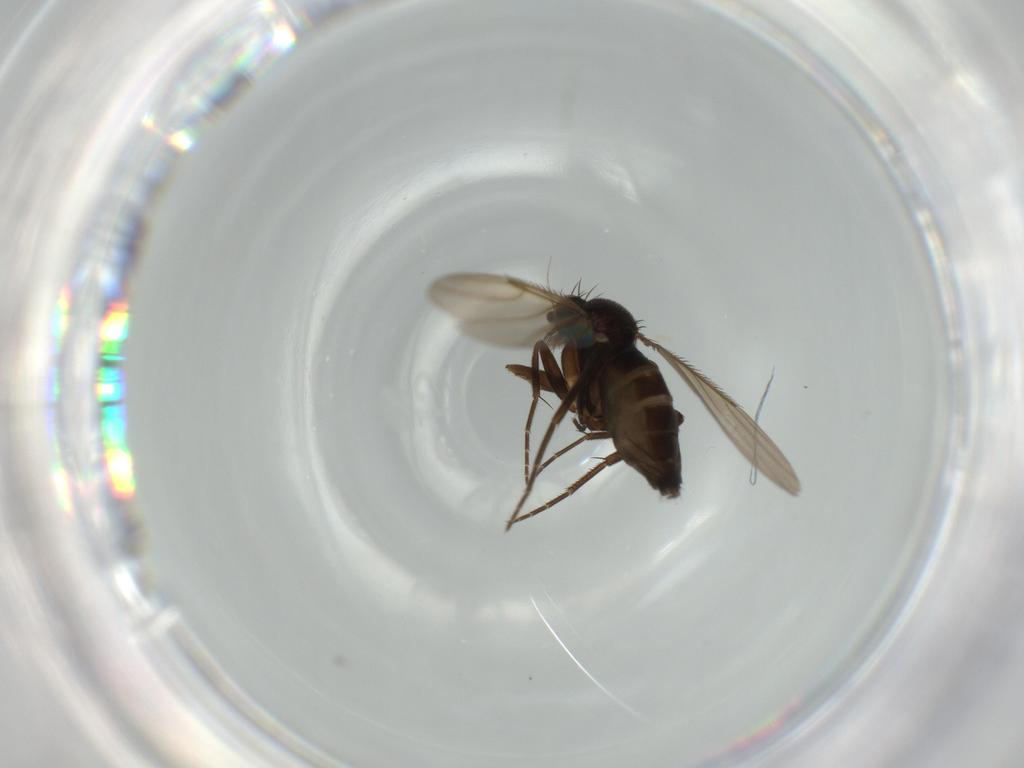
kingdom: Animalia
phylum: Arthropoda
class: Insecta
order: Diptera
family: Phoridae
